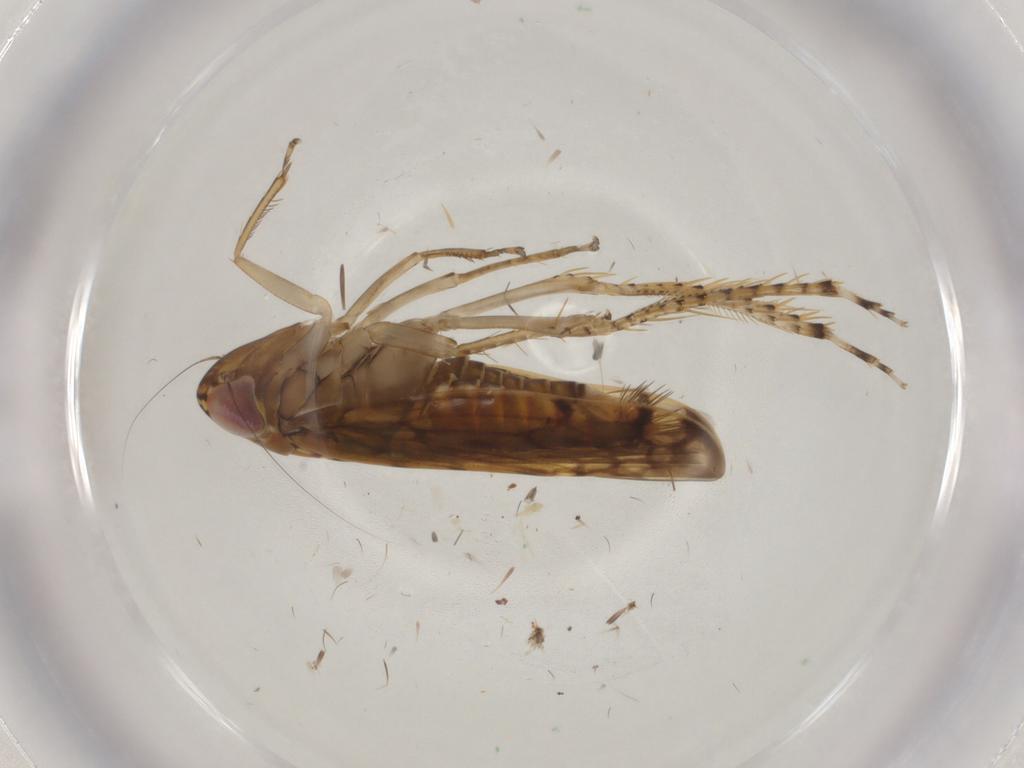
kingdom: Animalia
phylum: Arthropoda
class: Insecta
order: Hemiptera
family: Cicadellidae
